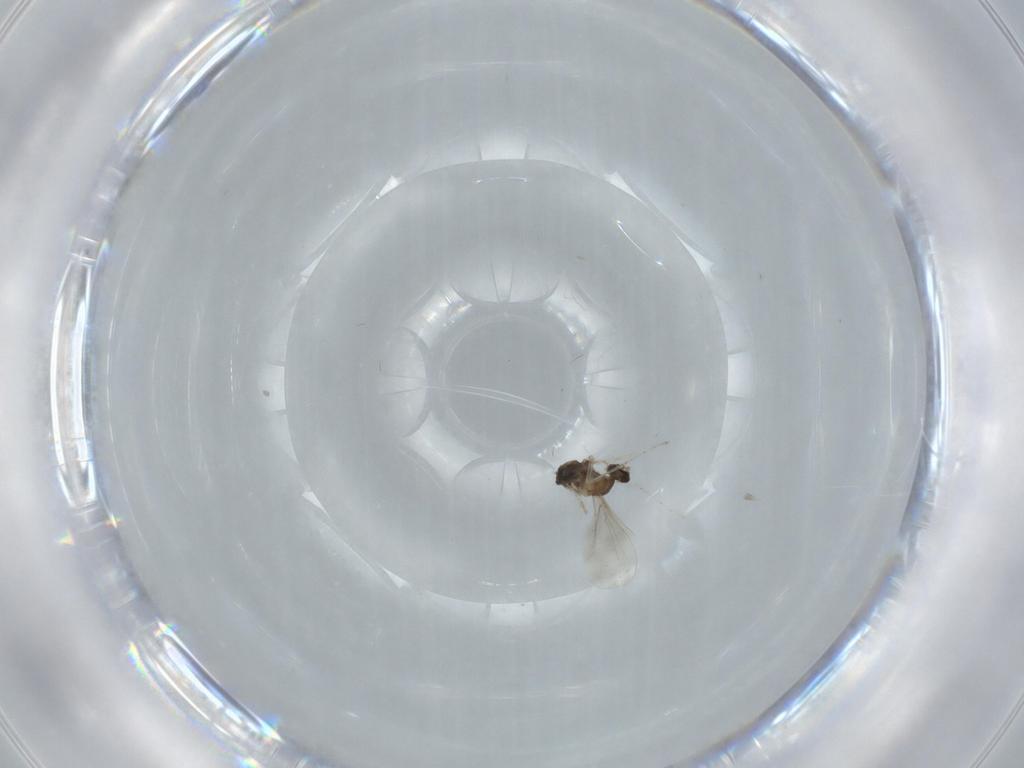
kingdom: Animalia
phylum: Arthropoda
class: Insecta
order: Diptera
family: Cecidomyiidae
